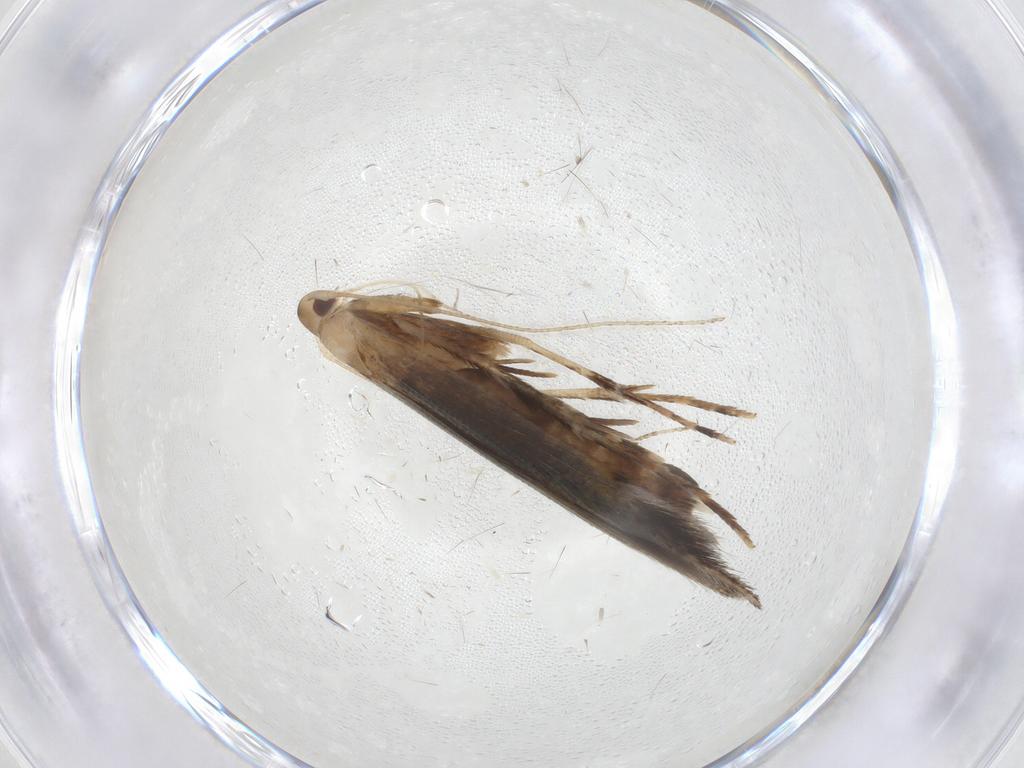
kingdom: Animalia
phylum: Arthropoda
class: Insecta
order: Lepidoptera
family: Cosmopterigidae
